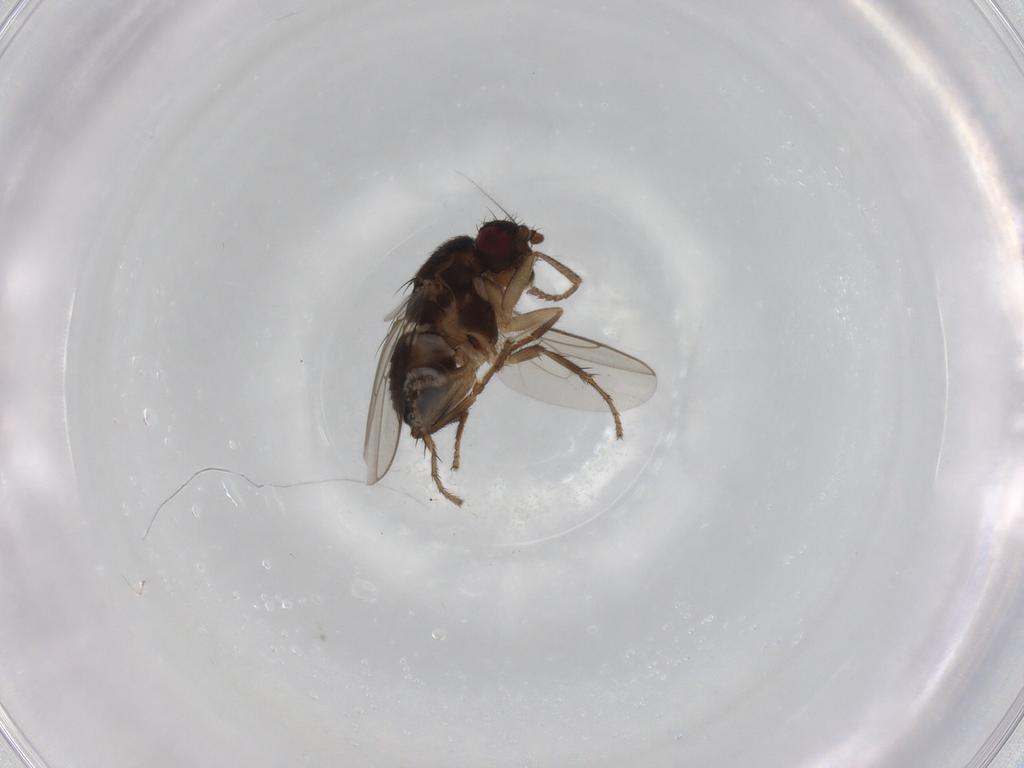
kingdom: Animalia
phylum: Arthropoda
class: Insecta
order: Diptera
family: Sphaeroceridae
